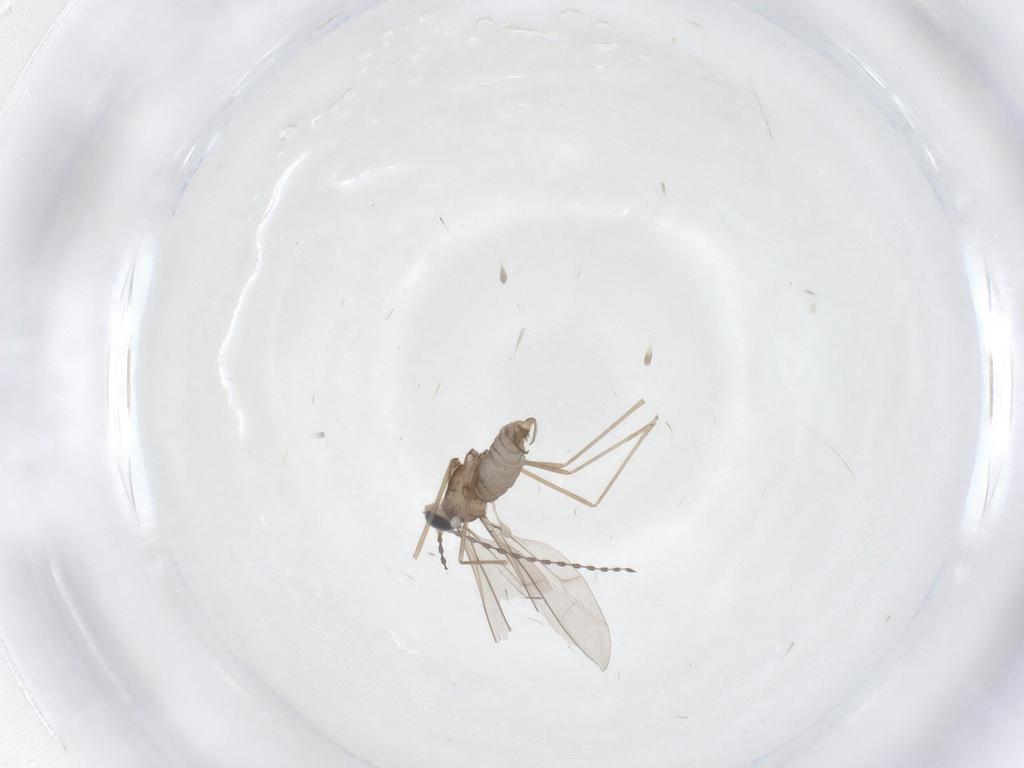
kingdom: Animalia
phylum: Arthropoda
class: Insecta
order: Diptera
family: Cecidomyiidae
